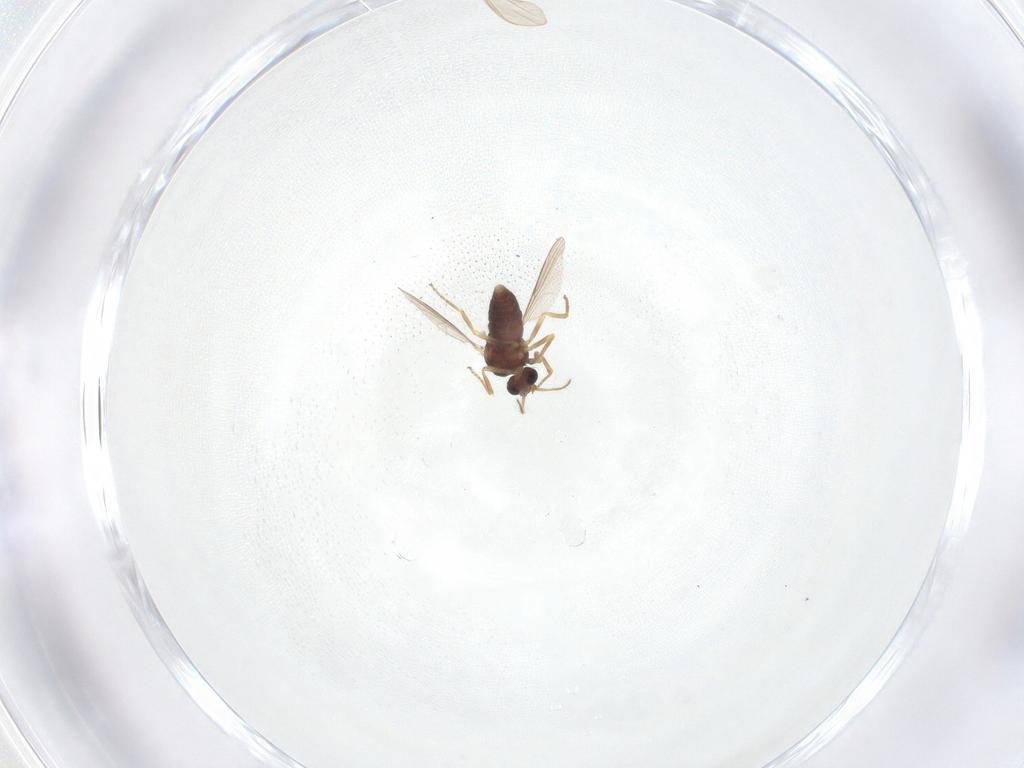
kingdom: Animalia
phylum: Arthropoda
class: Insecta
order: Diptera
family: Ceratopogonidae
